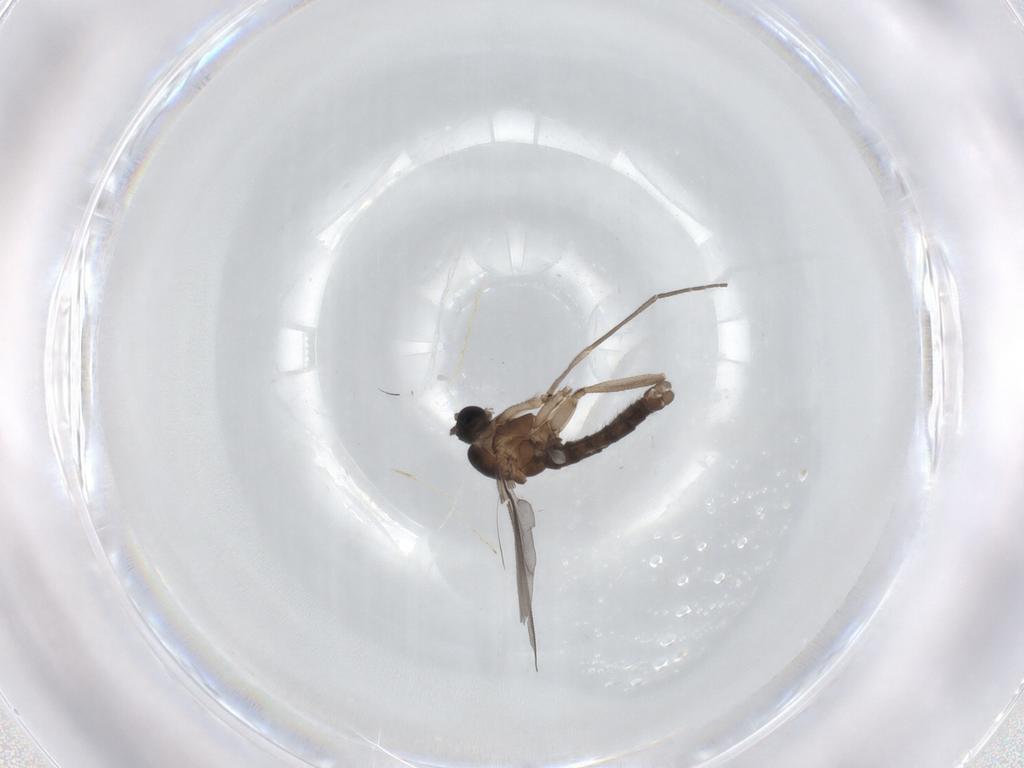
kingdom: Animalia
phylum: Arthropoda
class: Insecta
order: Diptera
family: Sciaridae
